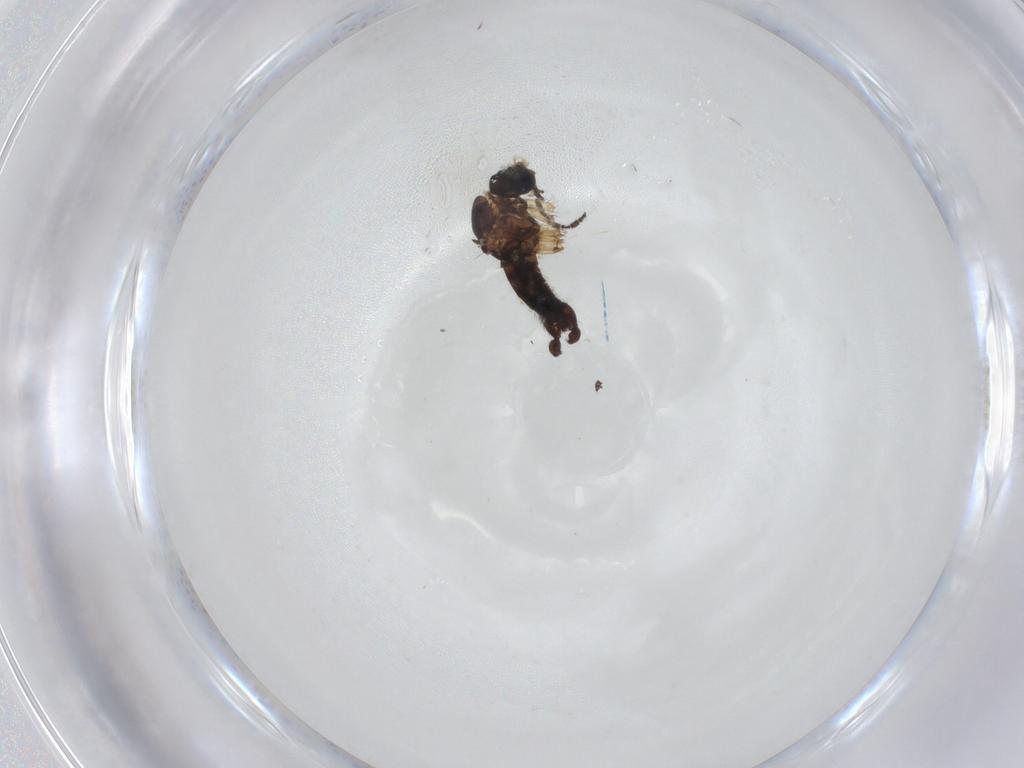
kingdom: Animalia
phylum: Arthropoda
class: Insecta
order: Diptera
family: Sciaridae
